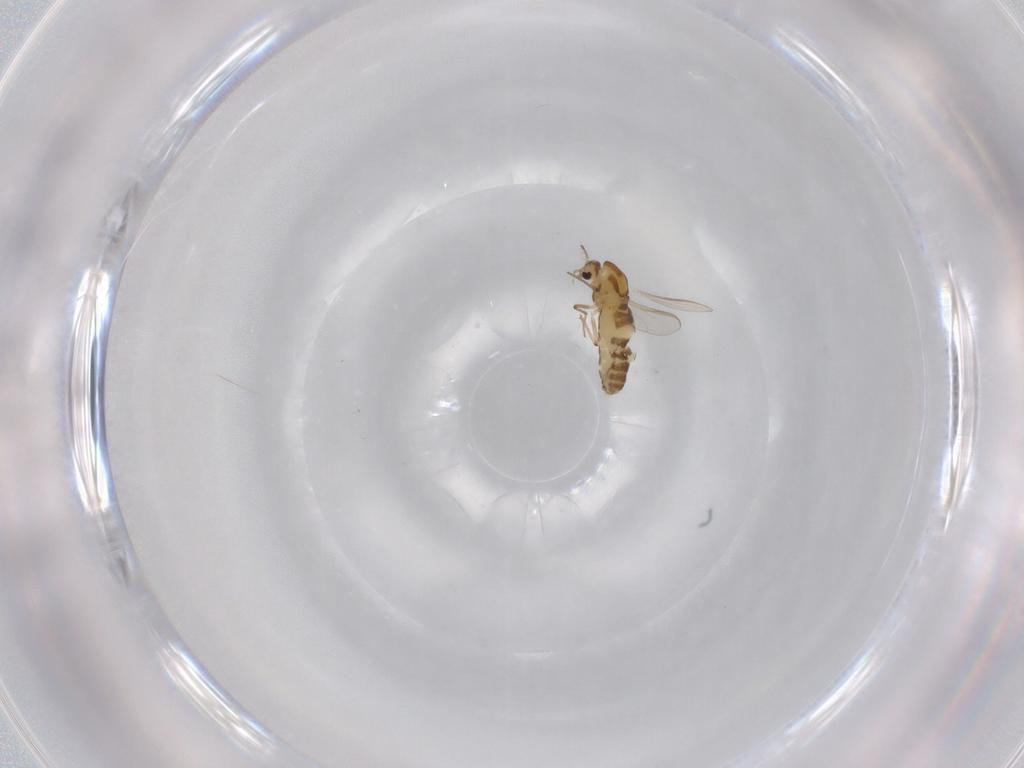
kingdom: Animalia
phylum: Arthropoda
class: Insecta
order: Diptera
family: Chironomidae
